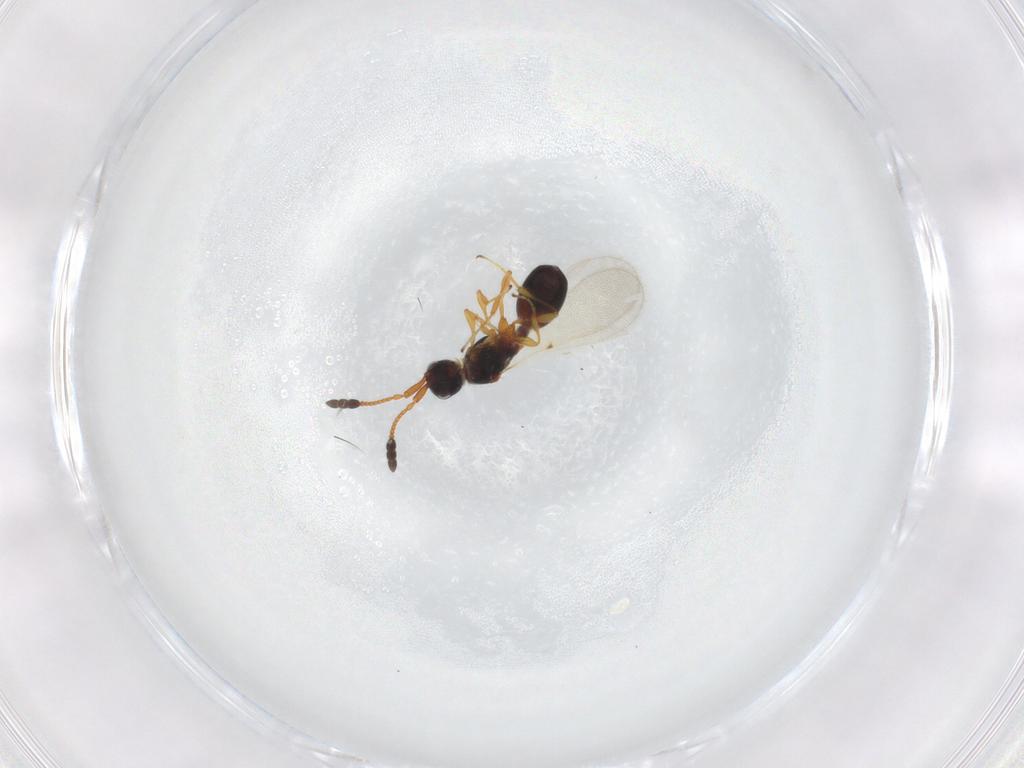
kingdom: Animalia
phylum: Arthropoda
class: Insecta
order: Hymenoptera
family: Diapriidae
